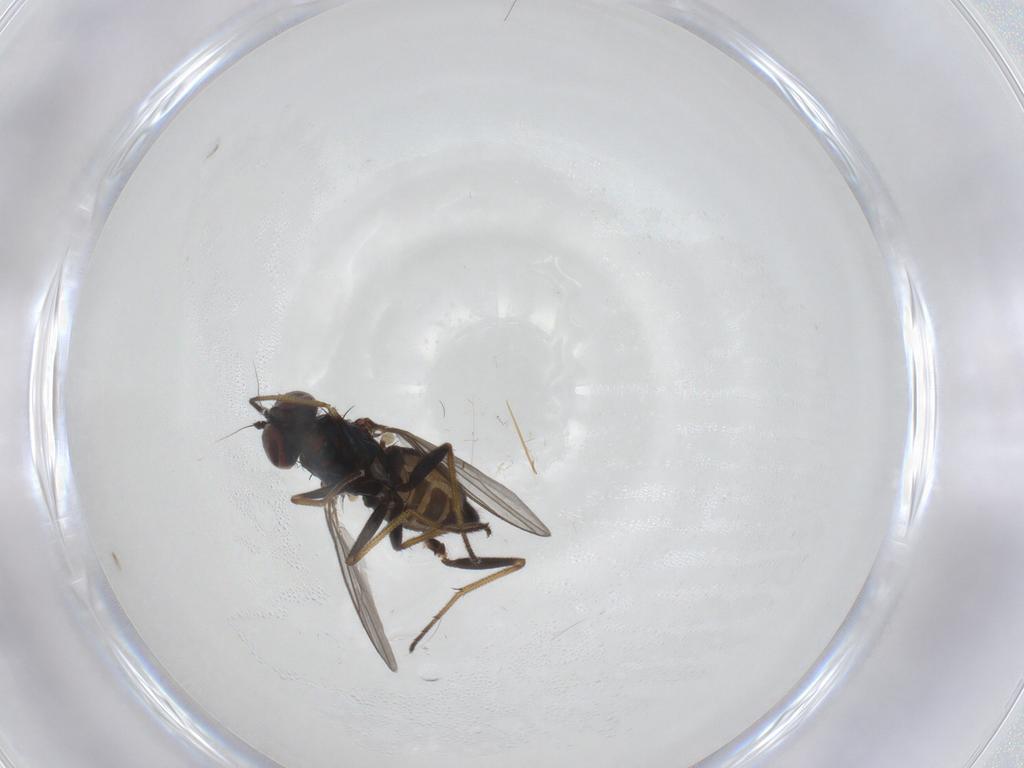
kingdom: Animalia
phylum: Arthropoda
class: Insecta
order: Diptera
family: Dolichopodidae
